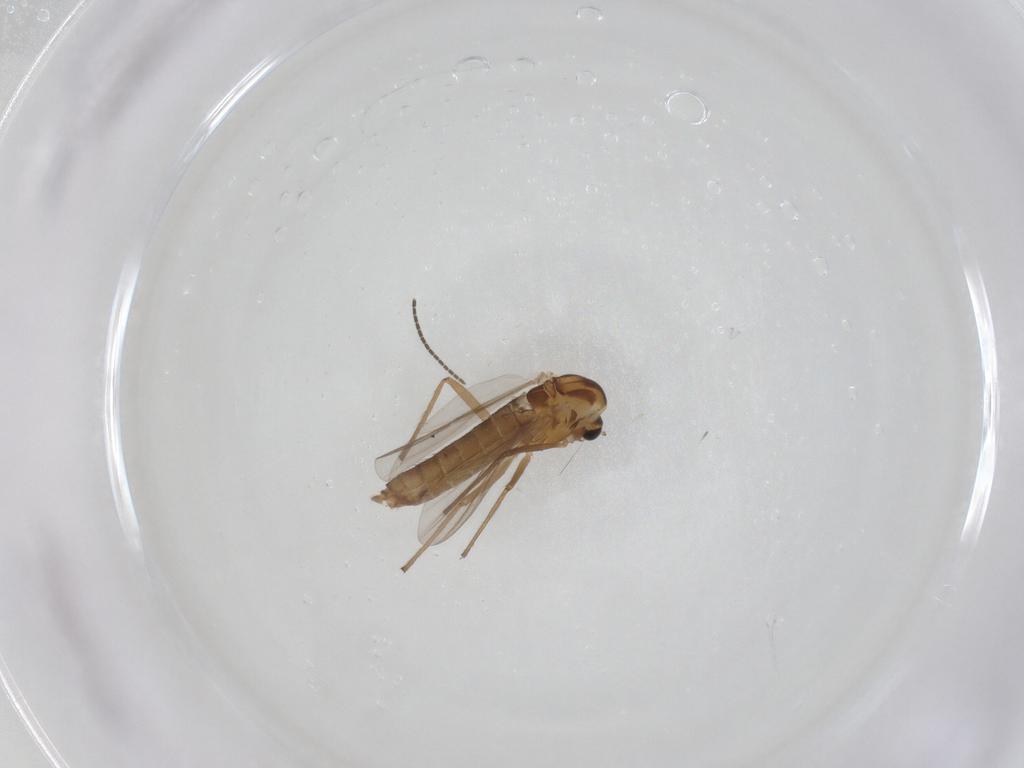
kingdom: Animalia
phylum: Arthropoda
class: Insecta
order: Diptera
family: Chironomidae
